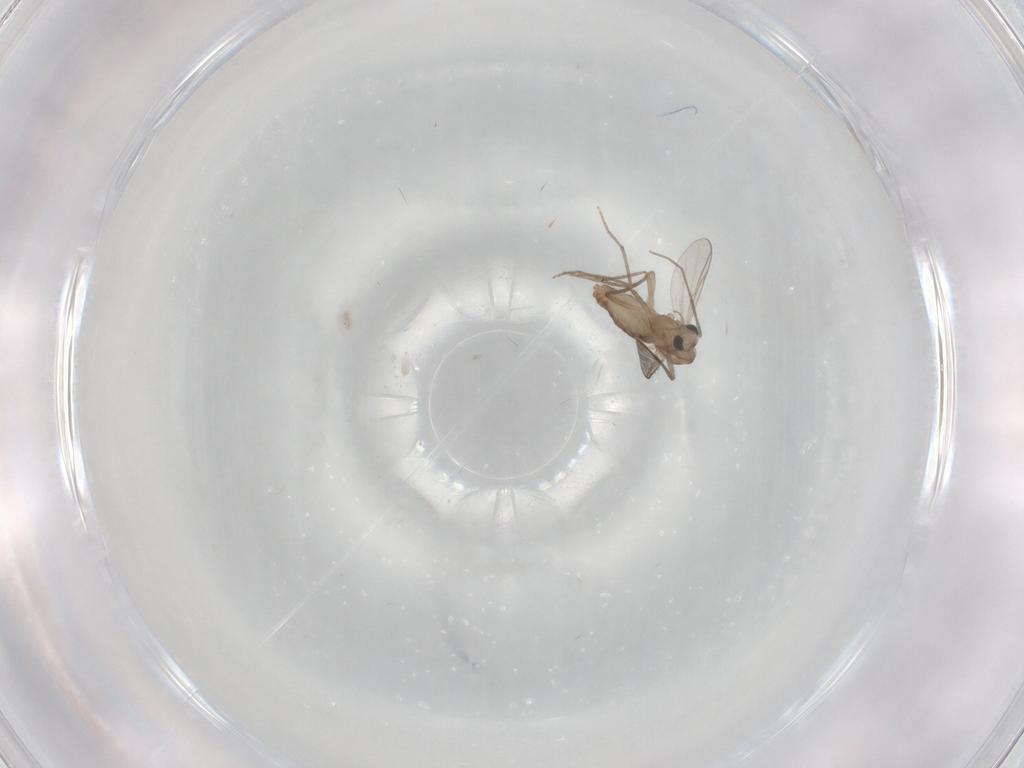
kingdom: Animalia
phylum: Arthropoda
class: Insecta
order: Diptera
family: Chironomidae
